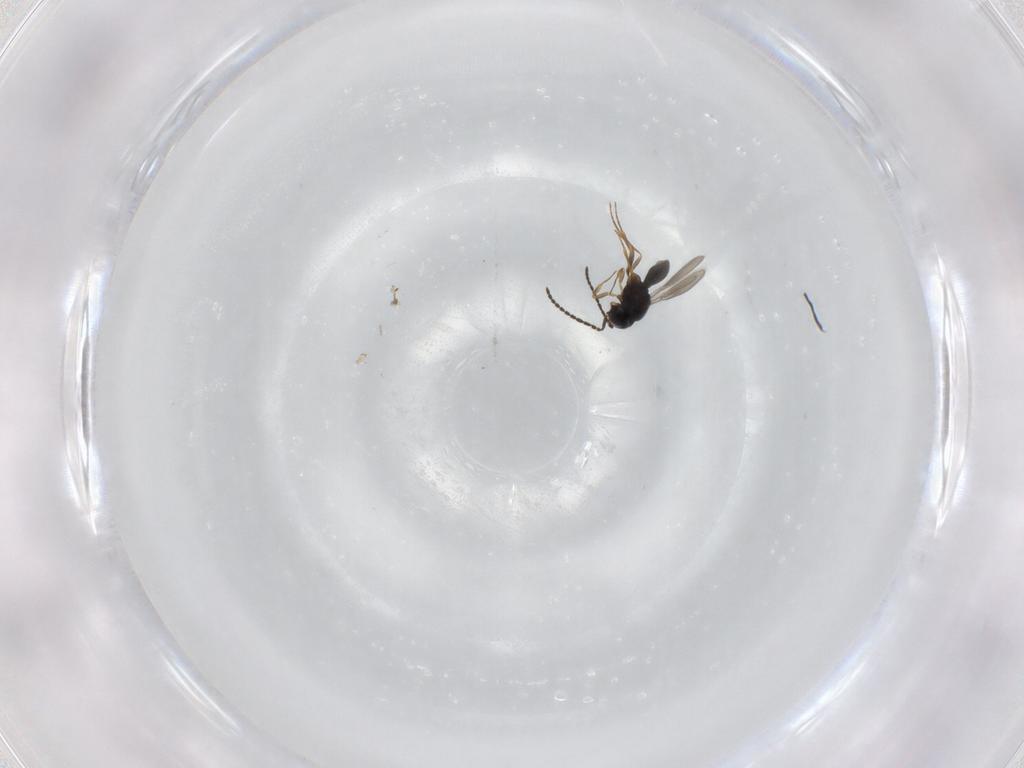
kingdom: Animalia
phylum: Arthropoda
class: Insecta
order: Hymenoptera
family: Scelionidae
